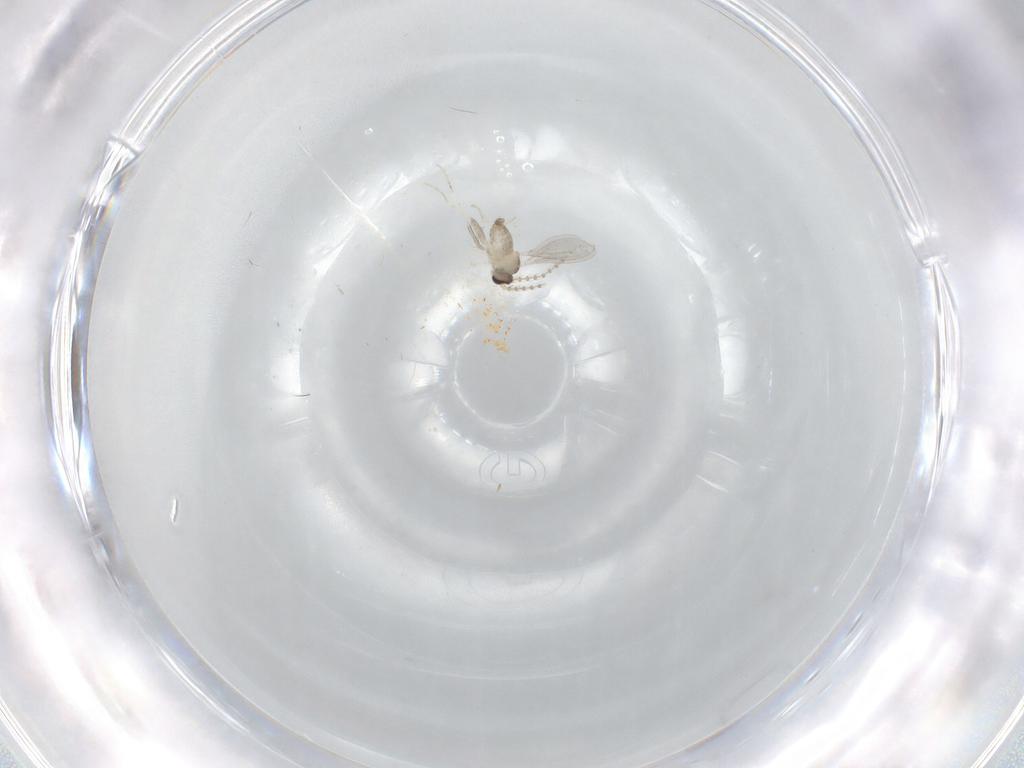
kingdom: Animalia
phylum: Arthropoda
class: Insecta
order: Diptera
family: Cecidomyiidae
